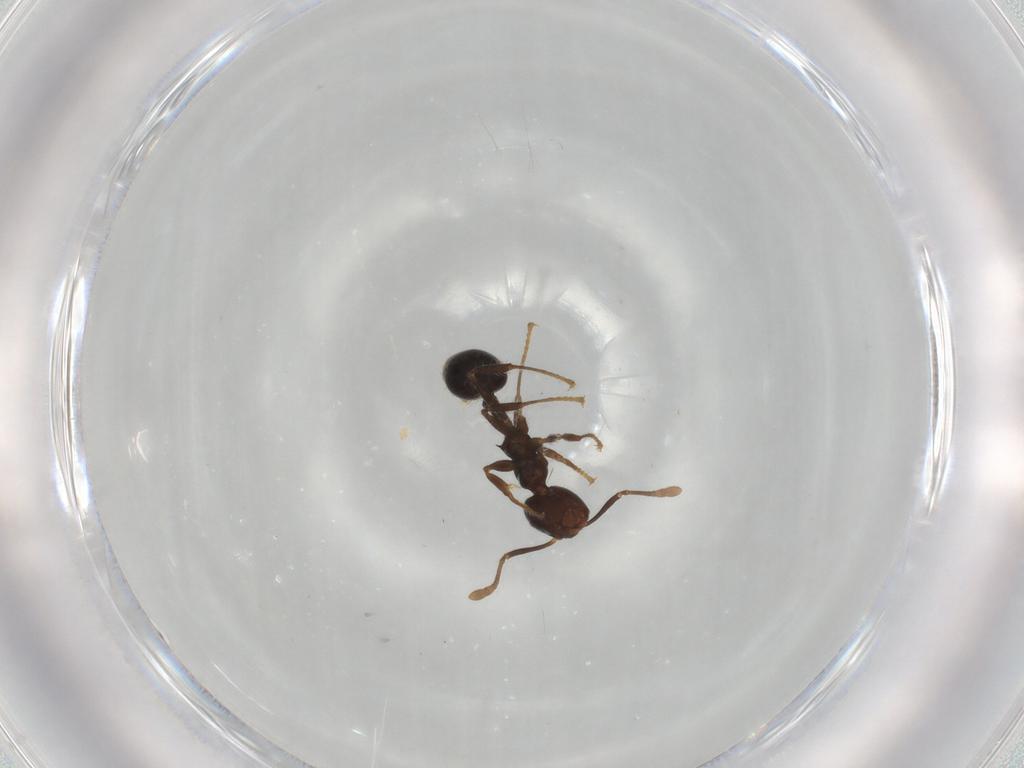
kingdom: Animalia
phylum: Arthropoda
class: Insecta
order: Hymenoptera
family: Formicidae
